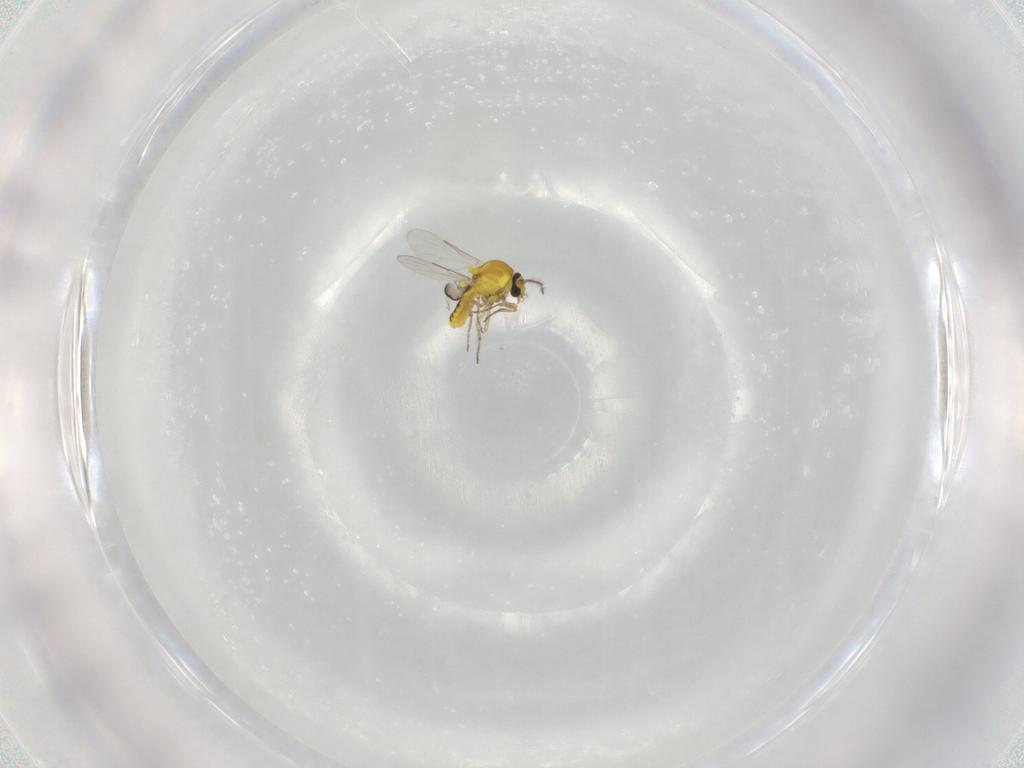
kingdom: Animalia
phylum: Arthropoda
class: Insecta
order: Diptera
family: Ceratopogonidae
